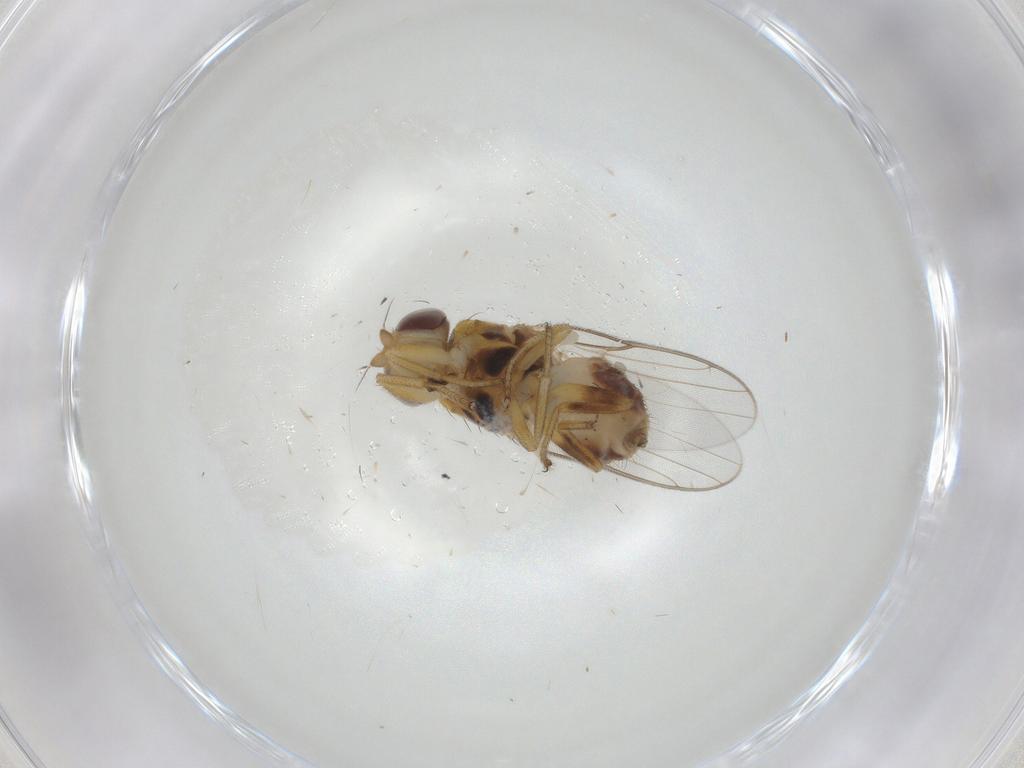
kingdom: Animalia
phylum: Arthropoda
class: Insecta
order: Diptera
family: Chloropidae
